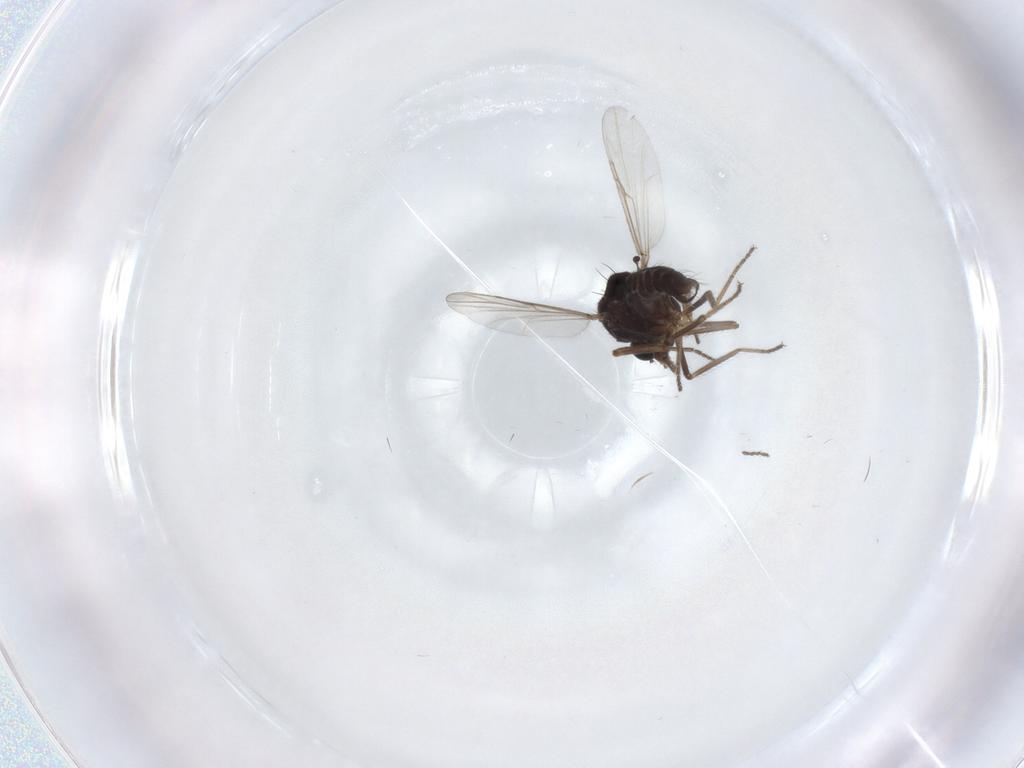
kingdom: Animalia
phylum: Arthropoda
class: Insecta
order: Diptera
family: Ceratopogonidae
